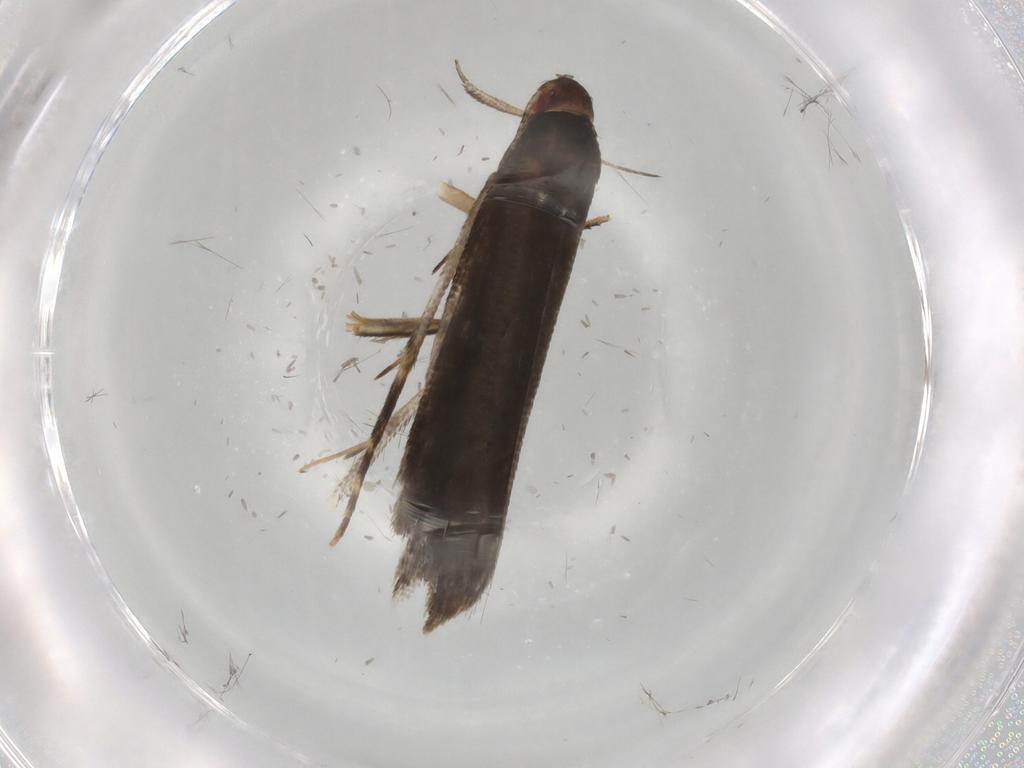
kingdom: Animalia
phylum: Arthropoda
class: Insecta
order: Lepidoptera
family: Gelechiidae
